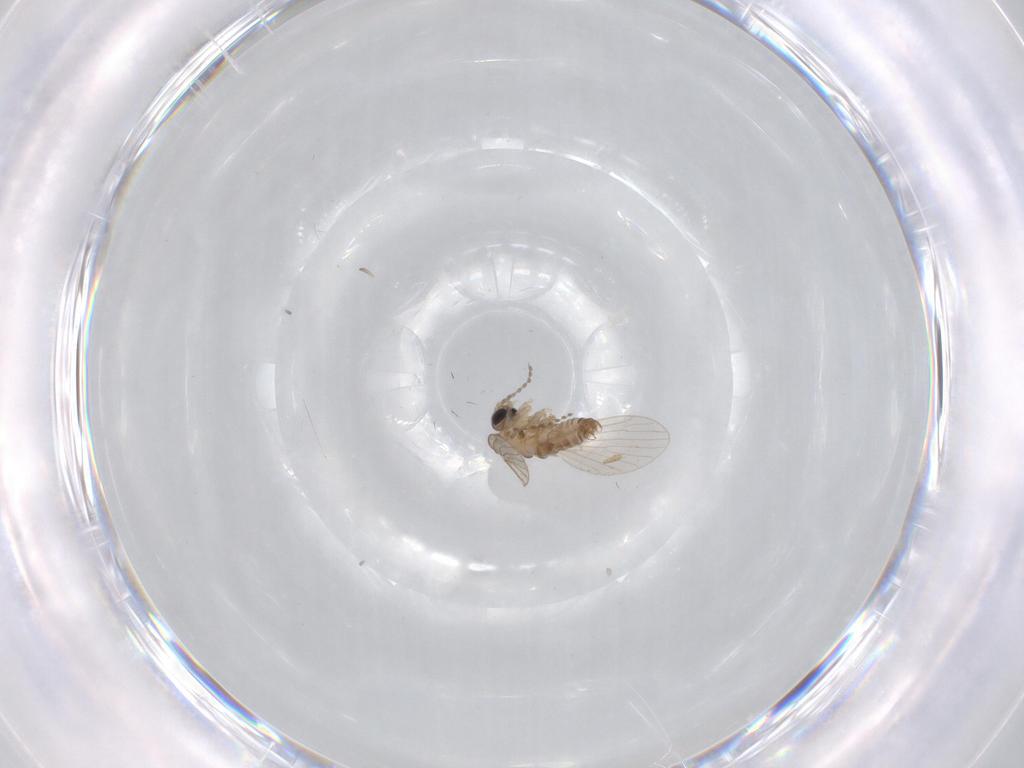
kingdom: Animalia
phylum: Arthropoda
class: Insecta
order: Diptera
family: Psychodidae
